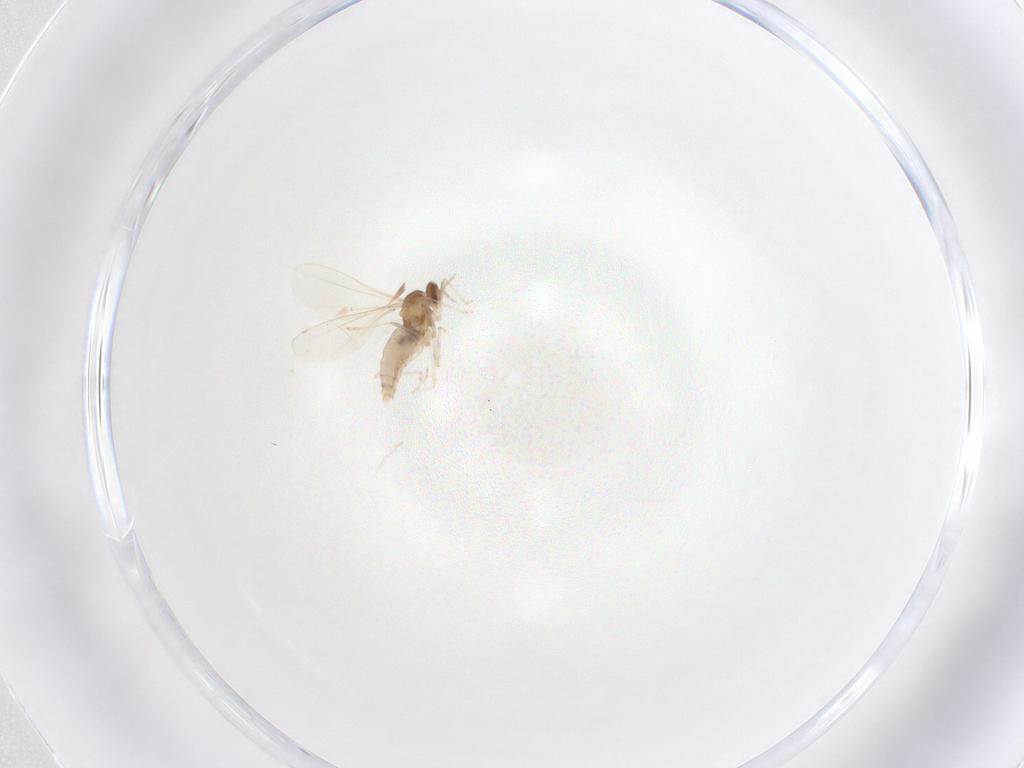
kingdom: Animalia
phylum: Arthropoda
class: Insecta
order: Diptera
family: Cecidomyiidae
